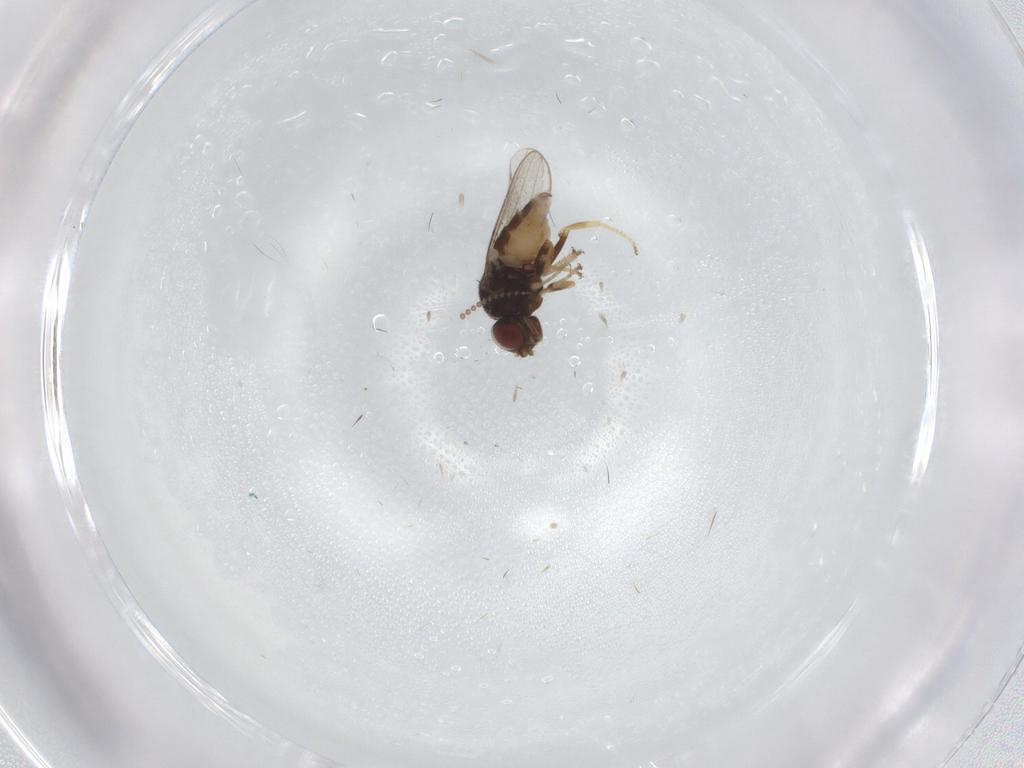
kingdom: Animalia
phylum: Arthropoda
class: Insecta
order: Diptera
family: Chloropidae
